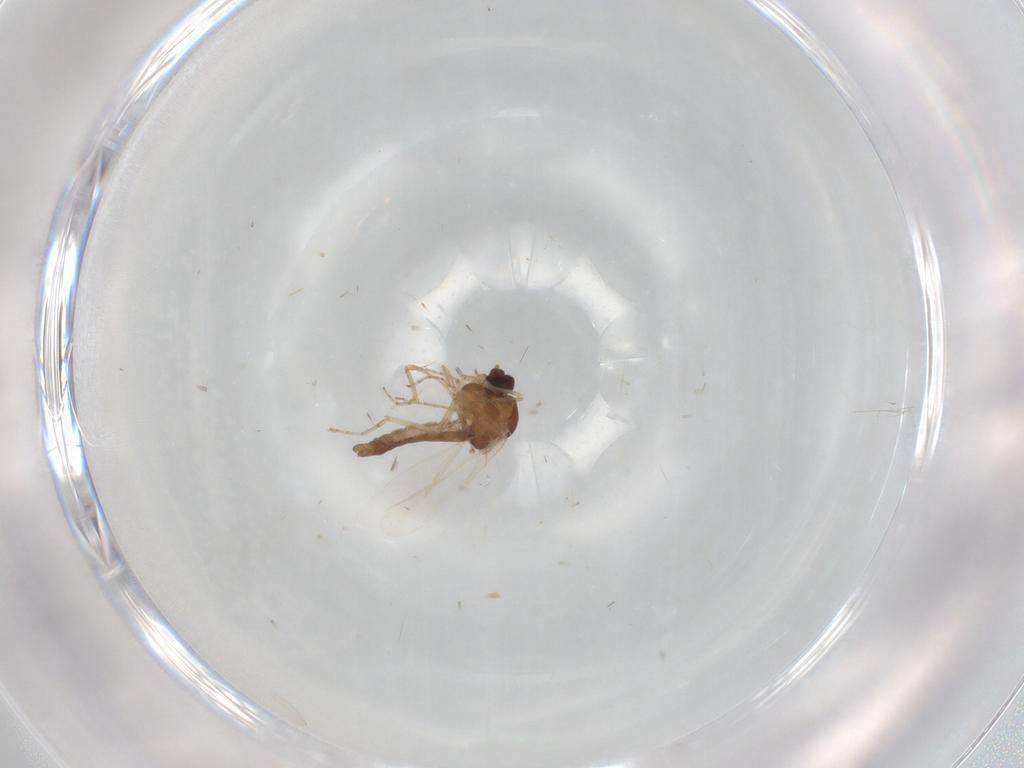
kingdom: Animalia
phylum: Arthropoda
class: Insecta
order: Diptera
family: Ceratopogonidae
